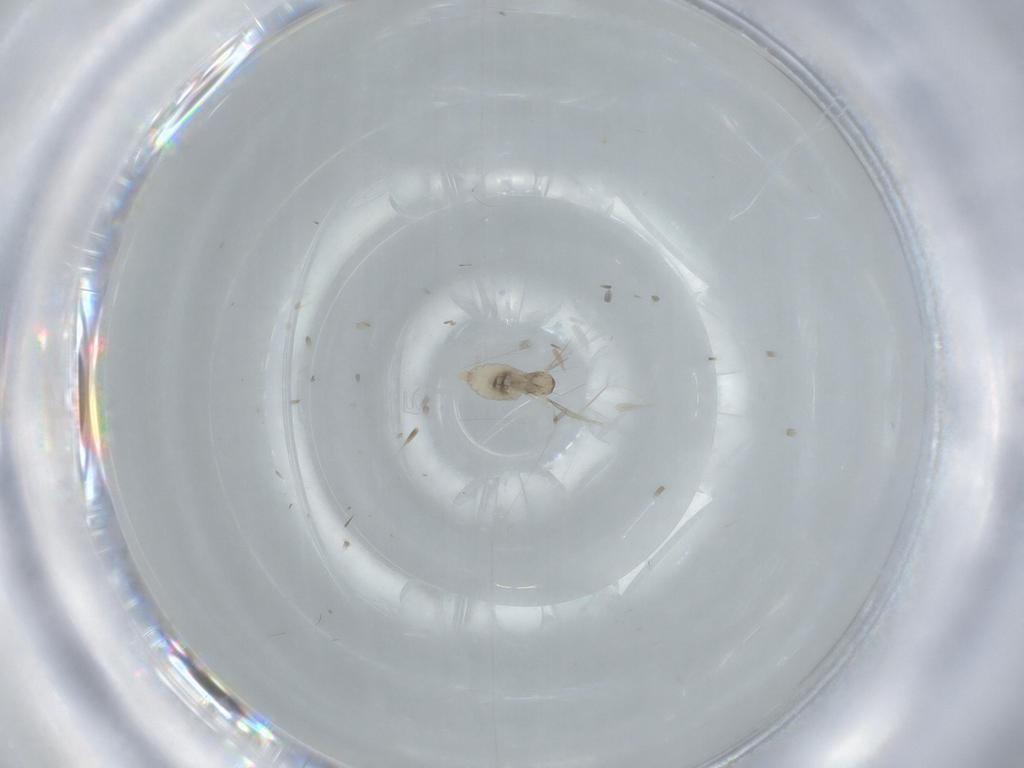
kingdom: Animalia
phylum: Arthropoda
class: Insecta
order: Diptera
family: Cecidomyiidae
